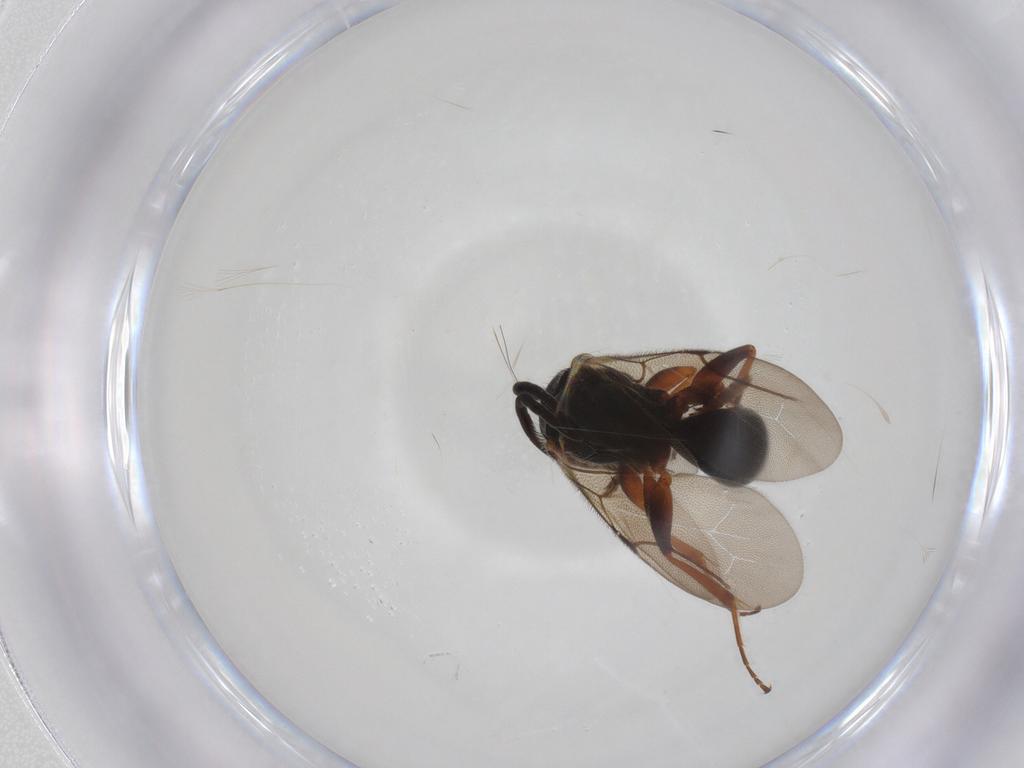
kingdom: Animalia
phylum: Arthropoda
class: Insecta
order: Hymenoptera
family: Bethylidae
